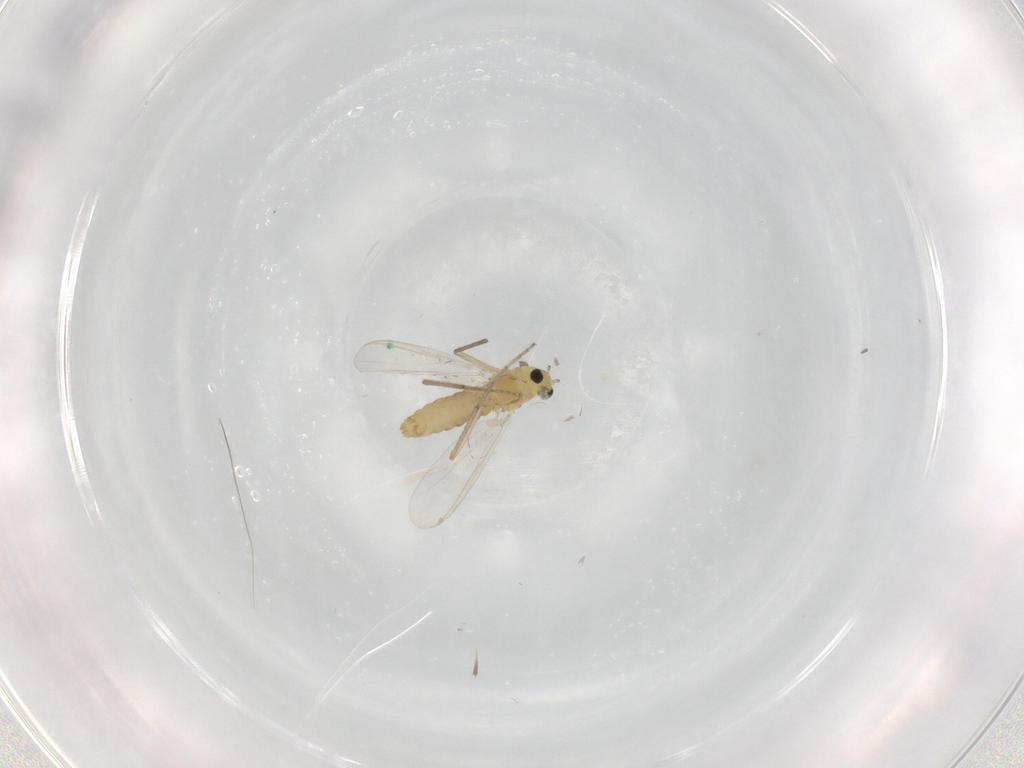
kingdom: Animalia
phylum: Arthropoda
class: Insecta
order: Diptera
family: Chironomidae
